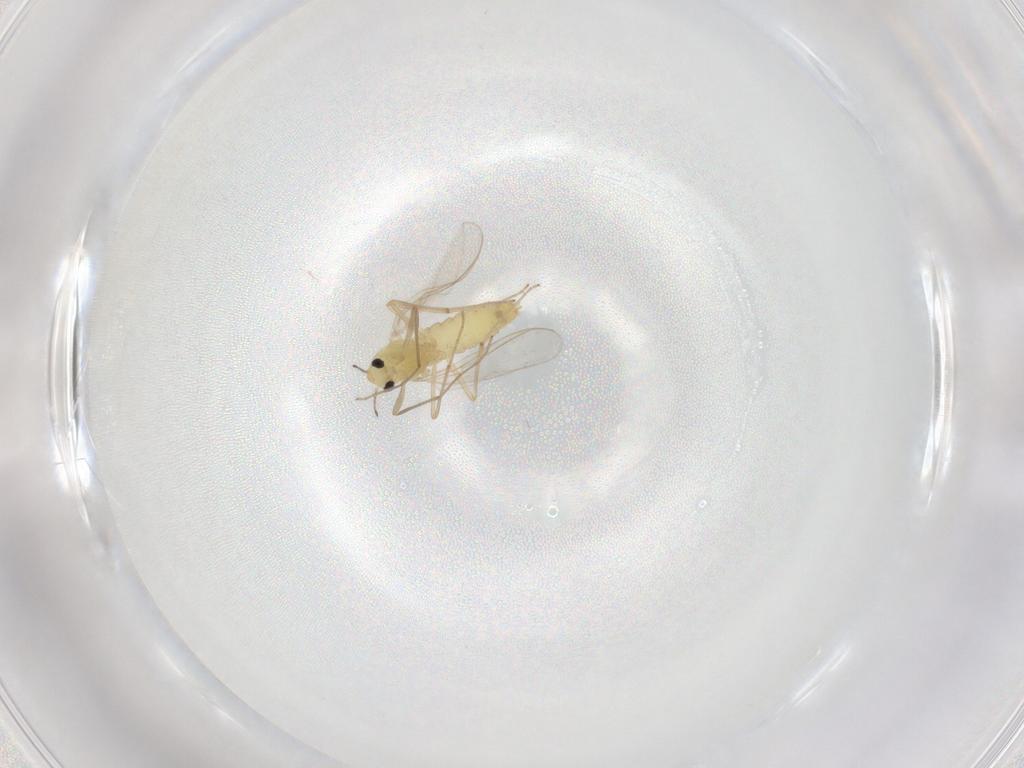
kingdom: Animalia
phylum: Arthropoda
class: Insecta
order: Diptera
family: Chironomidae
